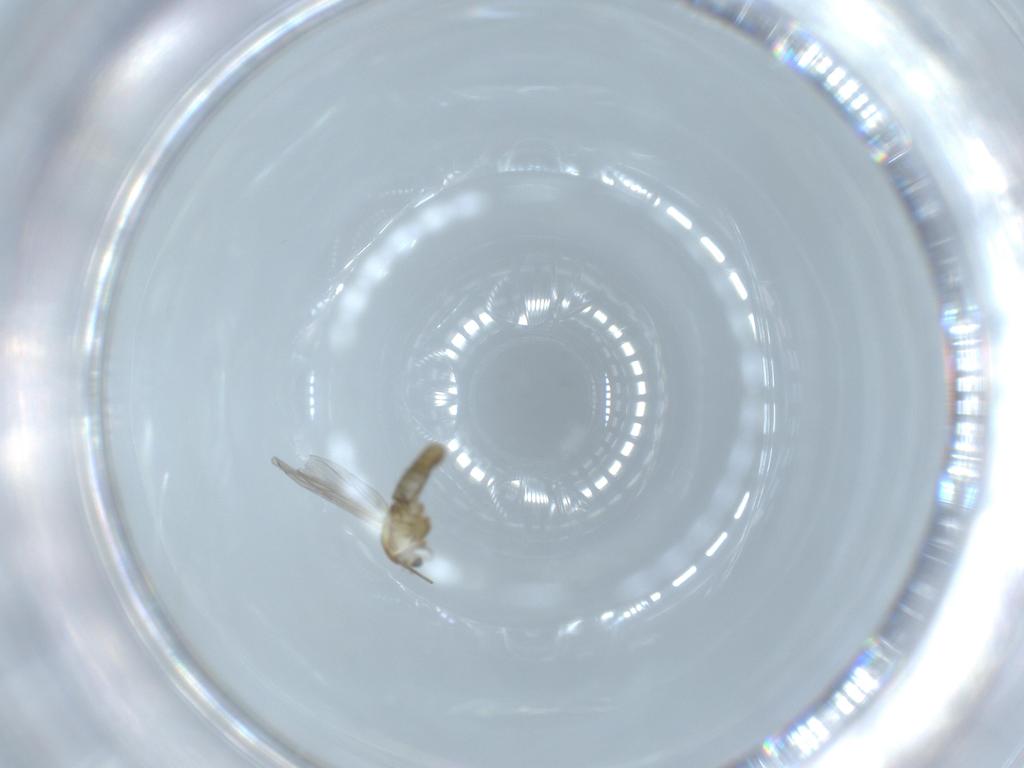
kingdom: Animalia
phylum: Arthropoda
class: Insecta
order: Diptera
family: Chironomidae
